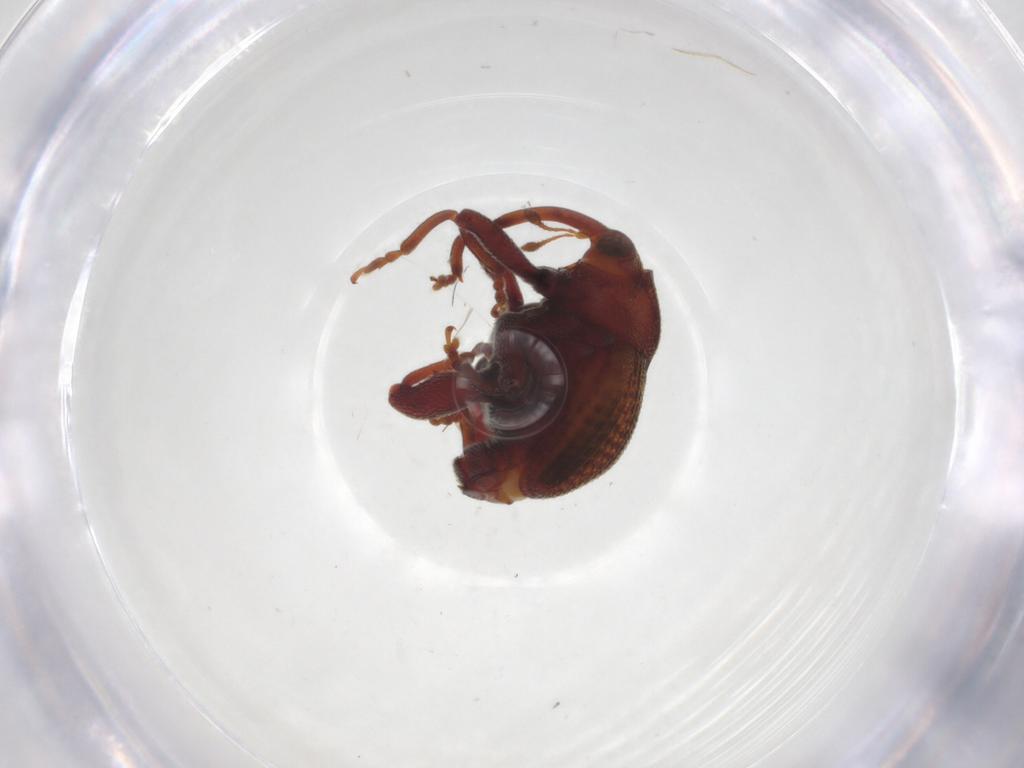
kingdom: Animalia
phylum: Arthropoda
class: Insecta
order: Coleoptera
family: Curculionidae
